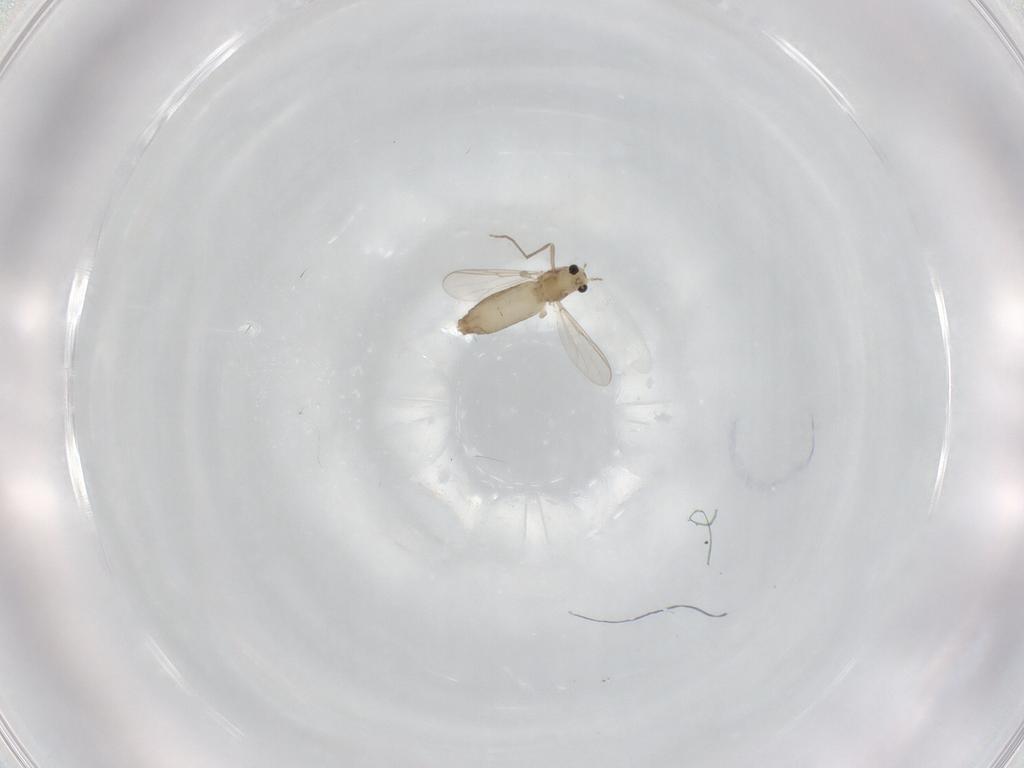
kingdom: Animalia
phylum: Arthropoda
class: Insecta
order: Diptera
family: Chironomidae
